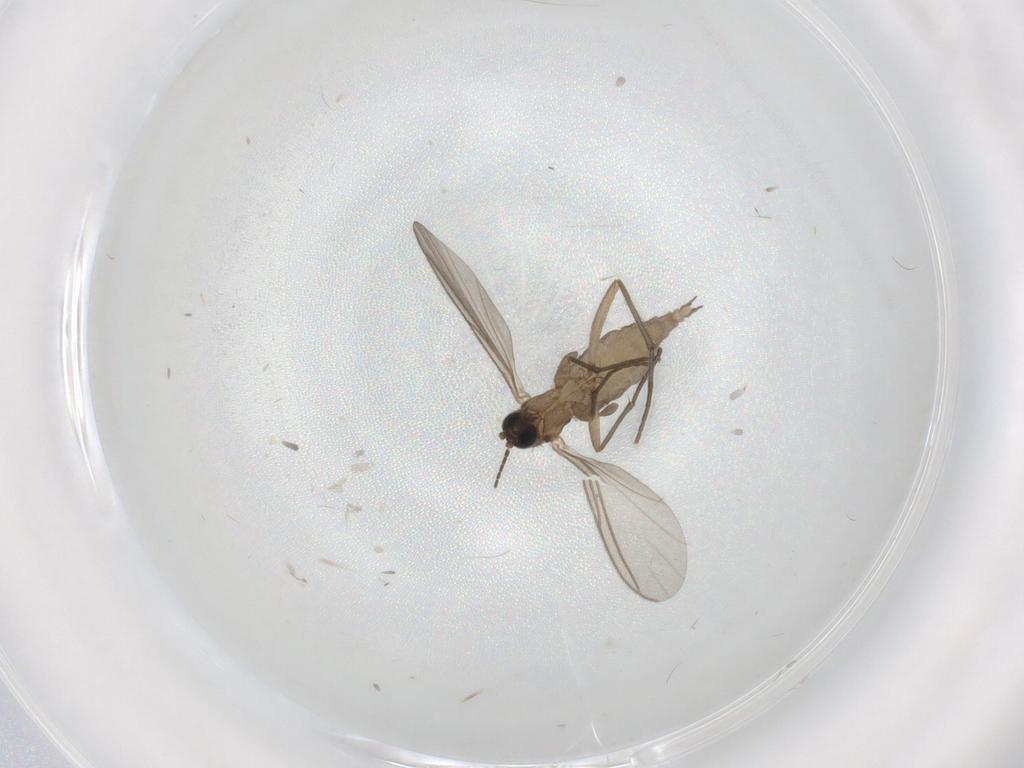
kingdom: Animalia
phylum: Arthropoda
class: Insecta
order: Diptera
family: Sciaridae
